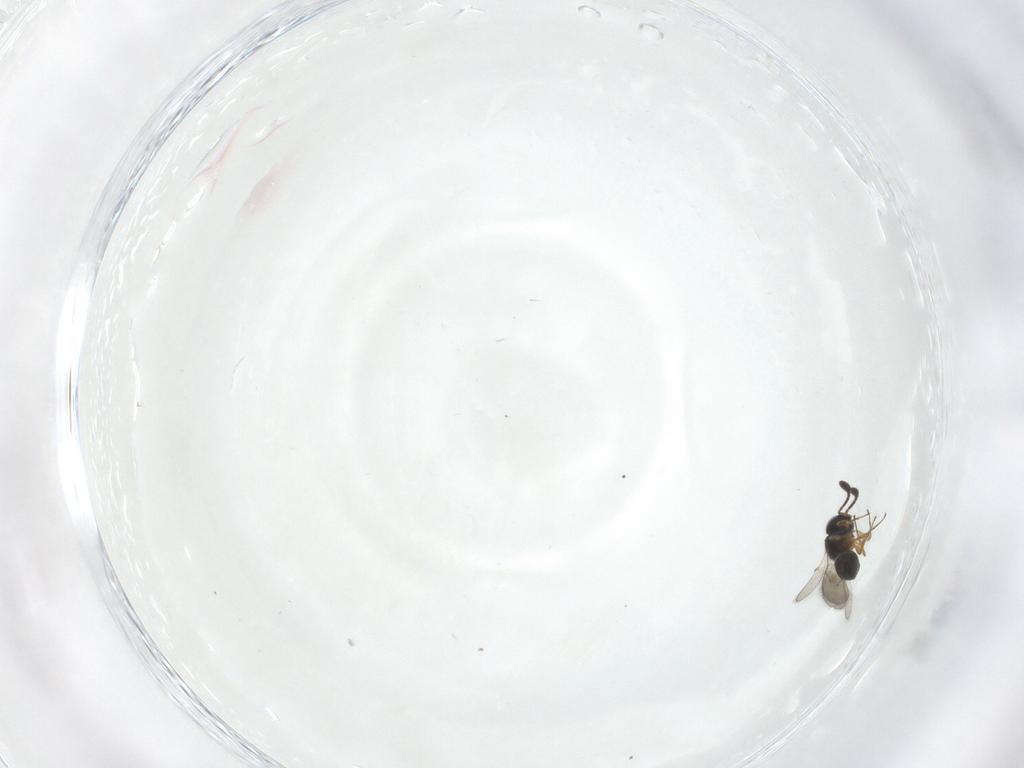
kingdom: Animalia
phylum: Arthropoda
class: Insecta
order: Hymenoptera
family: Scelionidae
